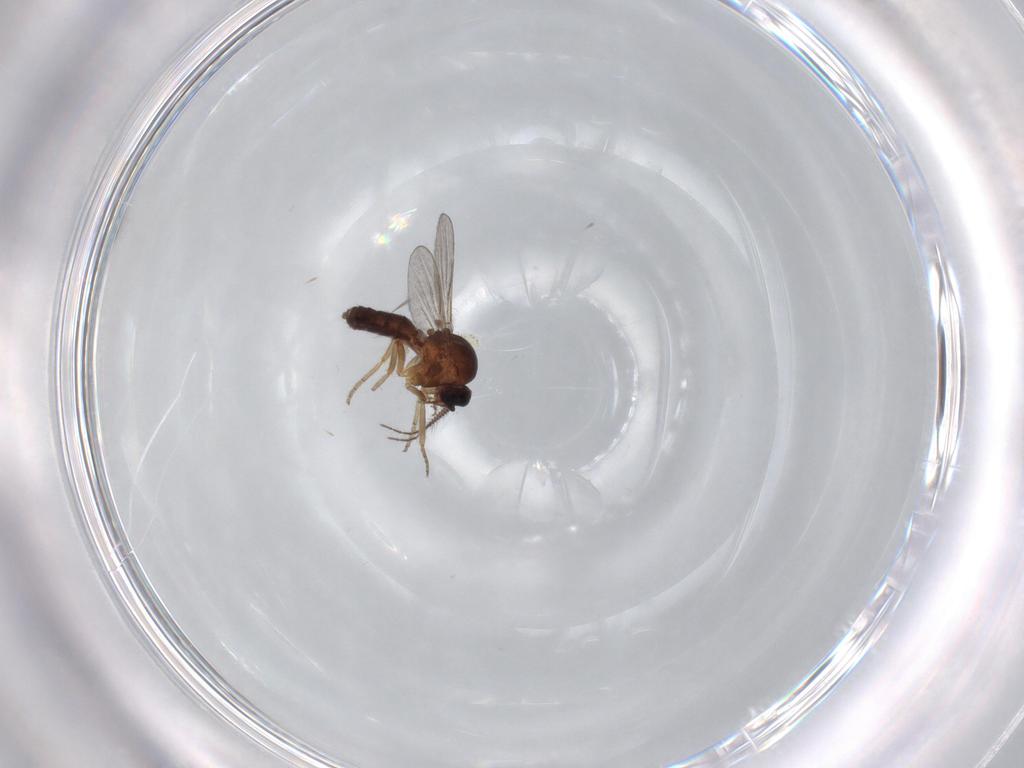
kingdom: Animalia
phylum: Arthropoda
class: Insecta
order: Diptera
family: Ceratopogonidae
